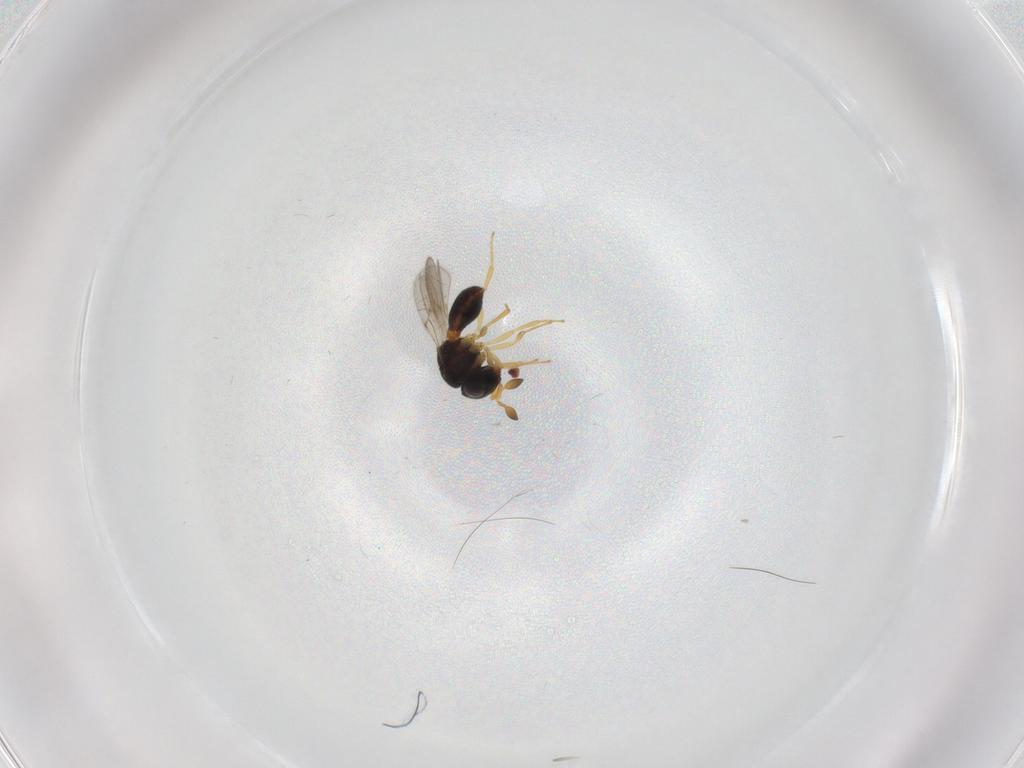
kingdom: Animalia
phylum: Arthropoda
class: Insecta
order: Hymenoptera
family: Scelionidae
